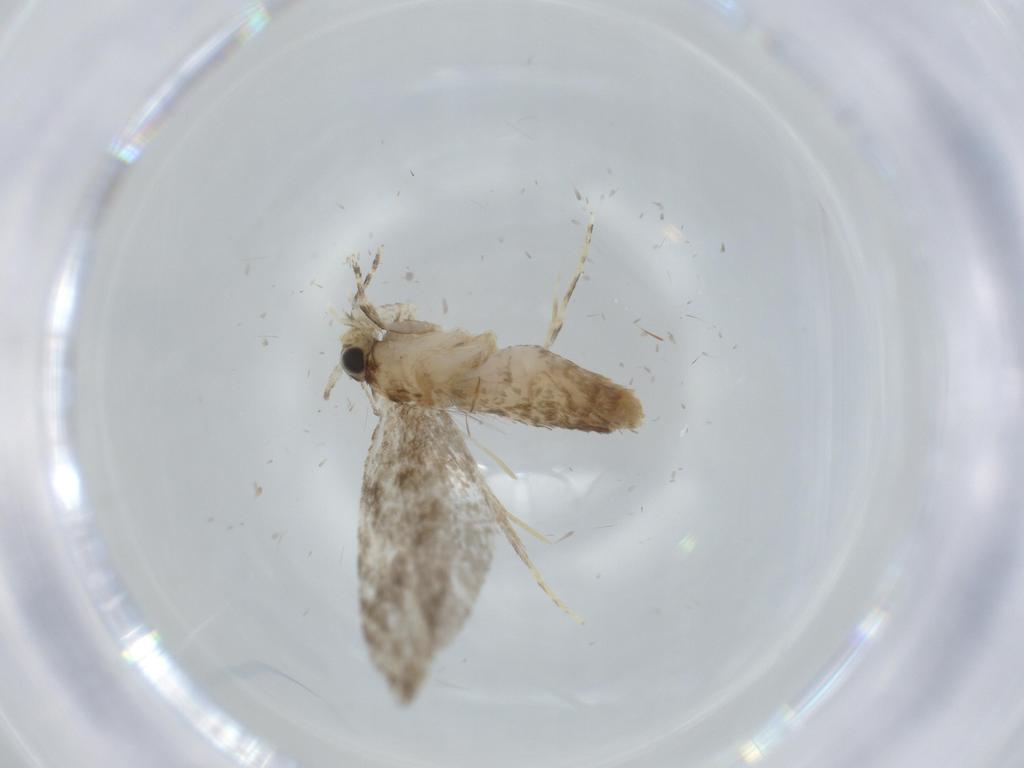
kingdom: Animalia
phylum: Arthropoda
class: Insecta
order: Lepidoptera
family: Tineidae
